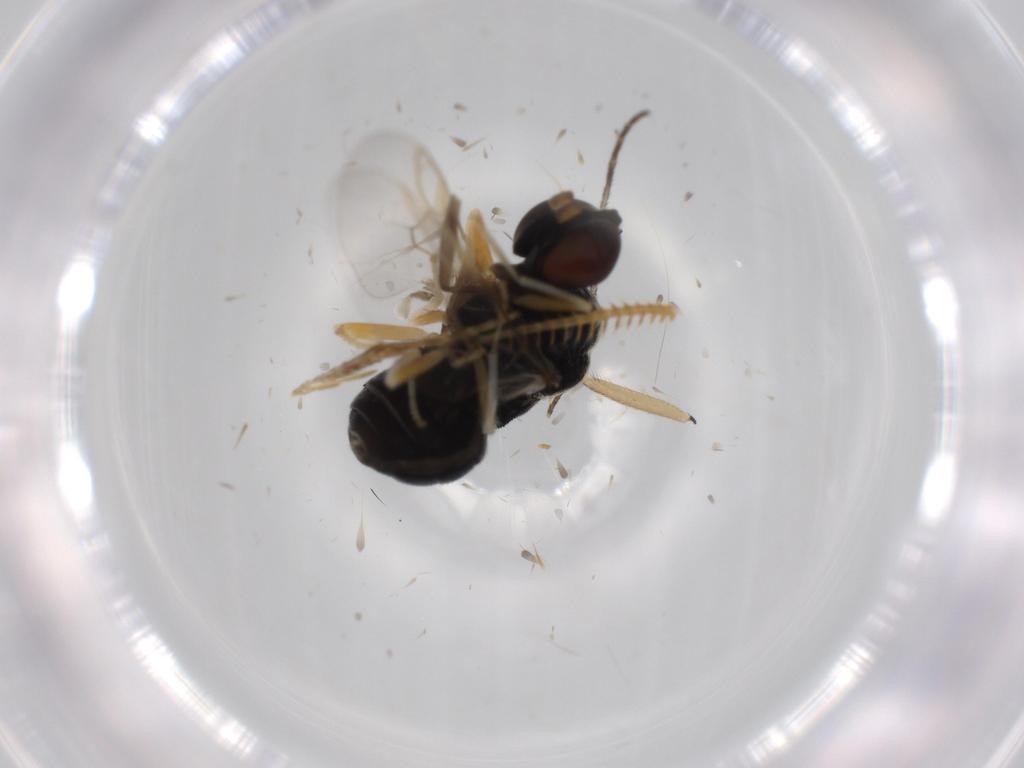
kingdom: Animalia
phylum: Arthropoda
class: Insecta
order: Diptera
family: Stratiomyidae
